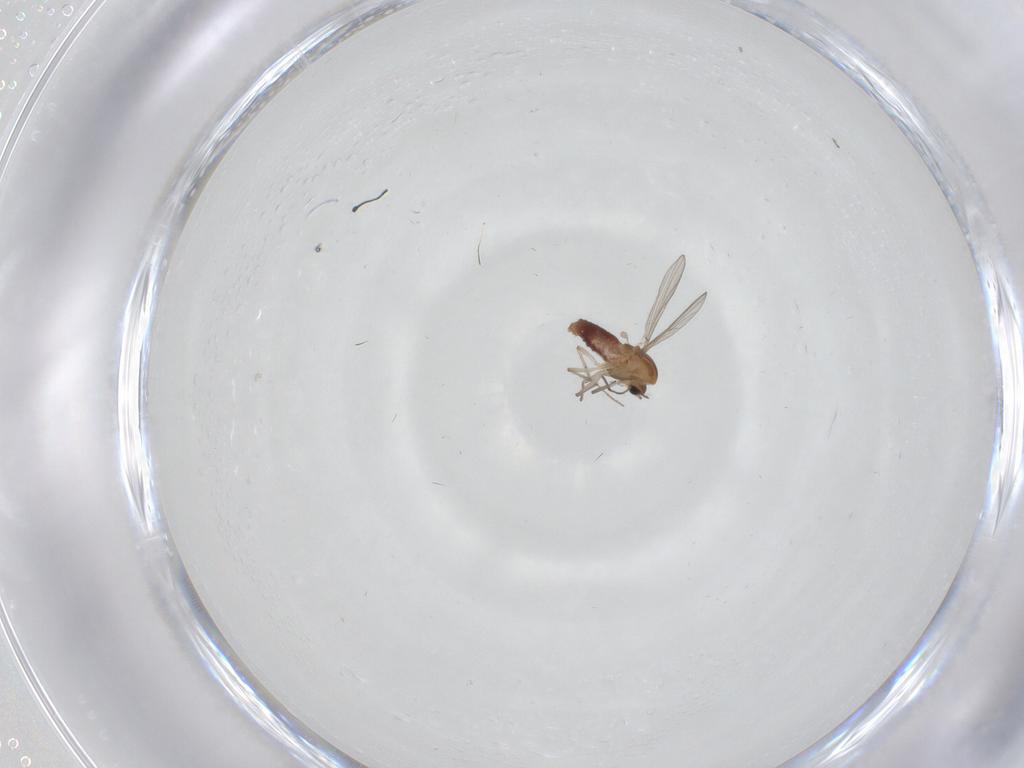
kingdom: Animalia
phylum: Arthropoda
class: Insecta
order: Diptera
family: Chironomidae
